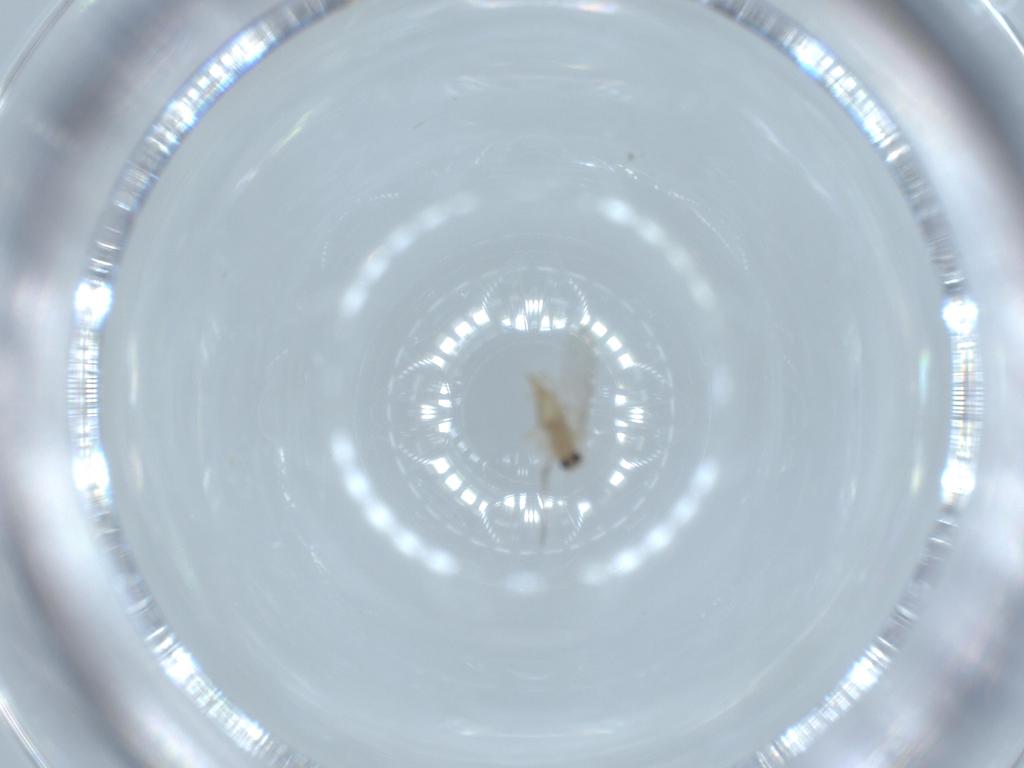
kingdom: Animalia
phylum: Arthropoda
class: Insecta
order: Diptera
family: Cecidomyiidae
